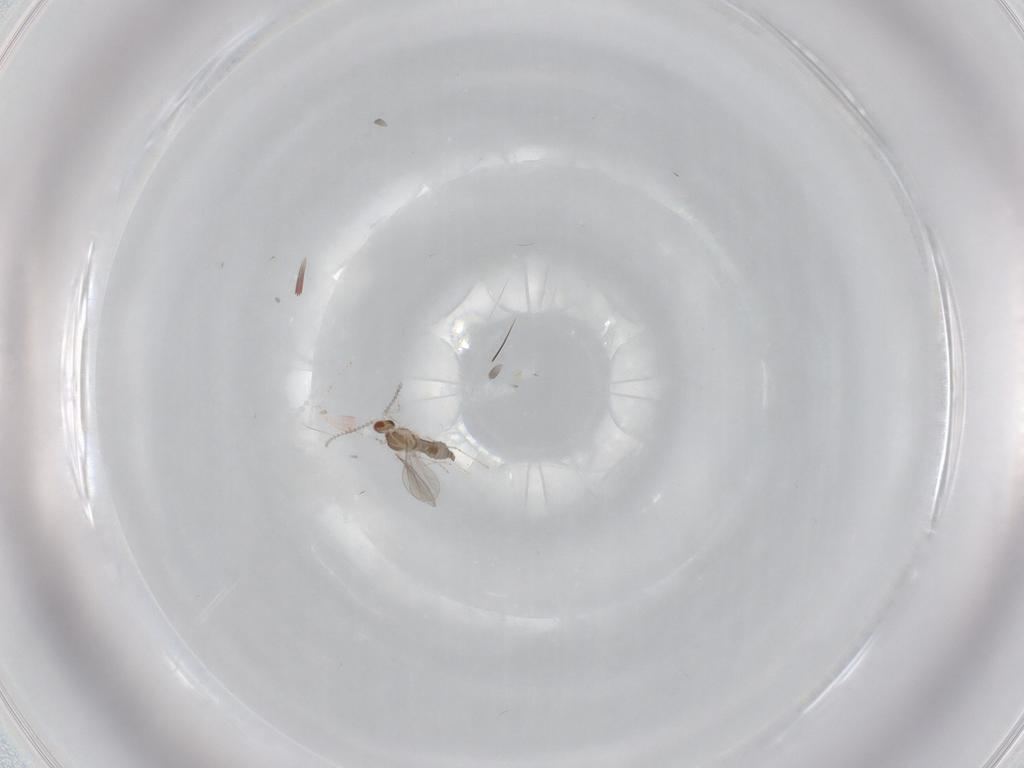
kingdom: Animalia
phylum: Arthropoda
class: Insecta
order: Diptera
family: Cecidomyiidae
